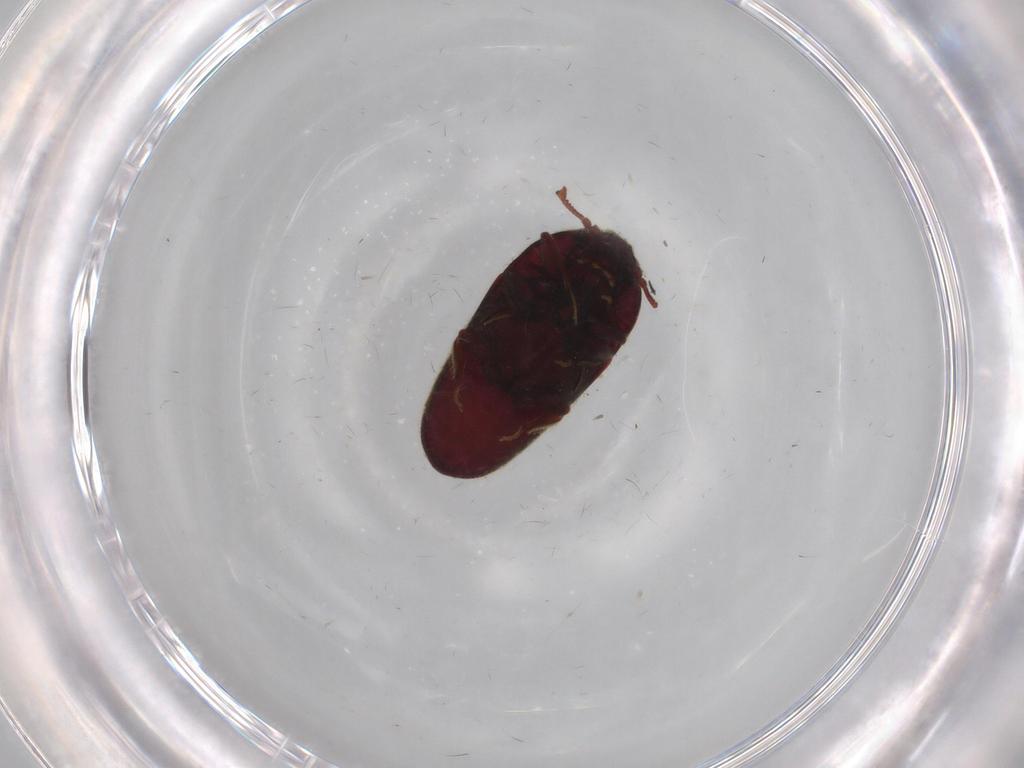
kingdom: Animalia
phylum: Arthropoda
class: Insecta
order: Coleoptera
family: Throscidae
